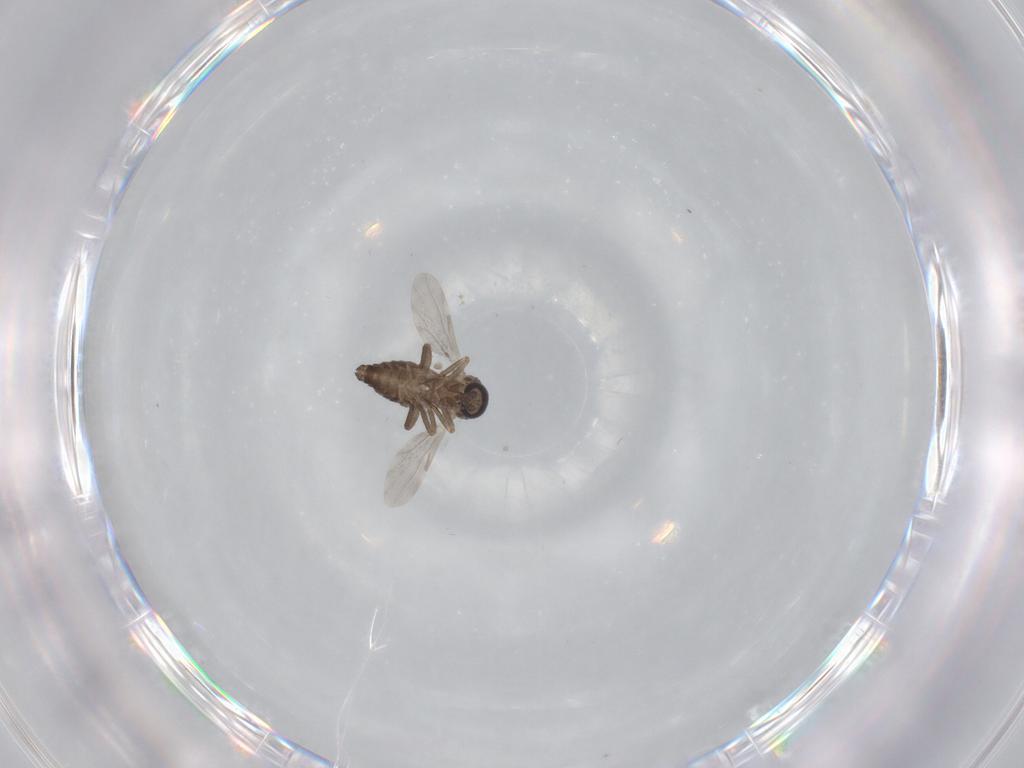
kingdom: Animalia
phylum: Arthropoda
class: Insecta
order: Diptera
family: Ceratopogonidae
